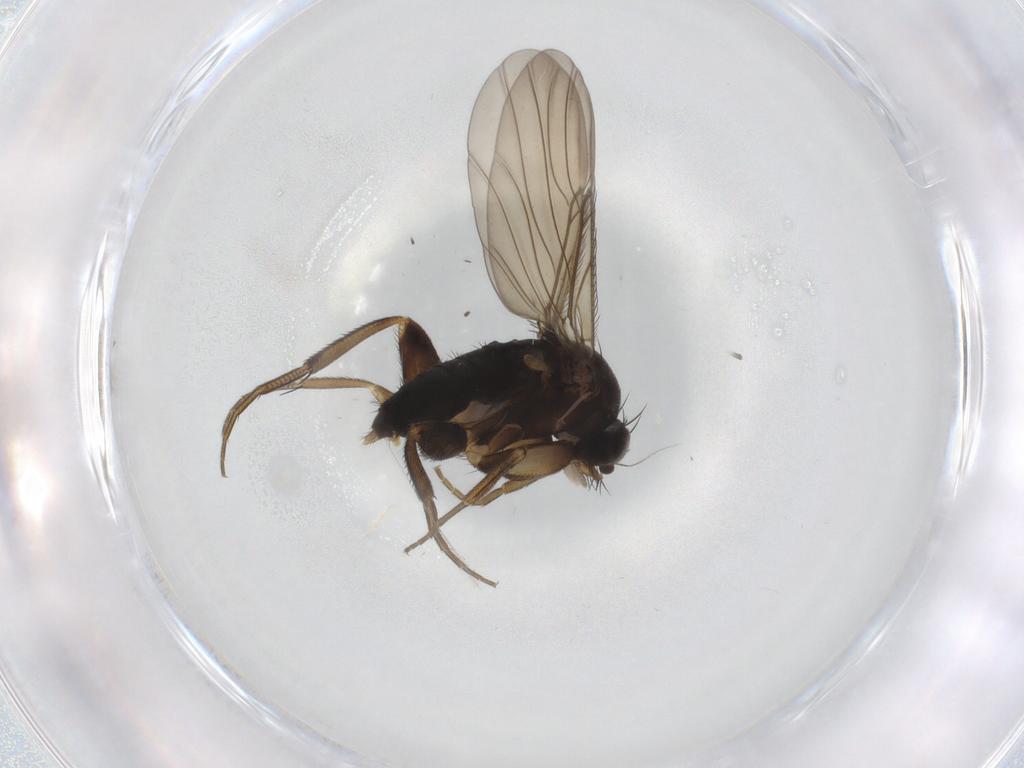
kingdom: Animalia
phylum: Arthropoda
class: Insecta
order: Diptera
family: Phoridae
